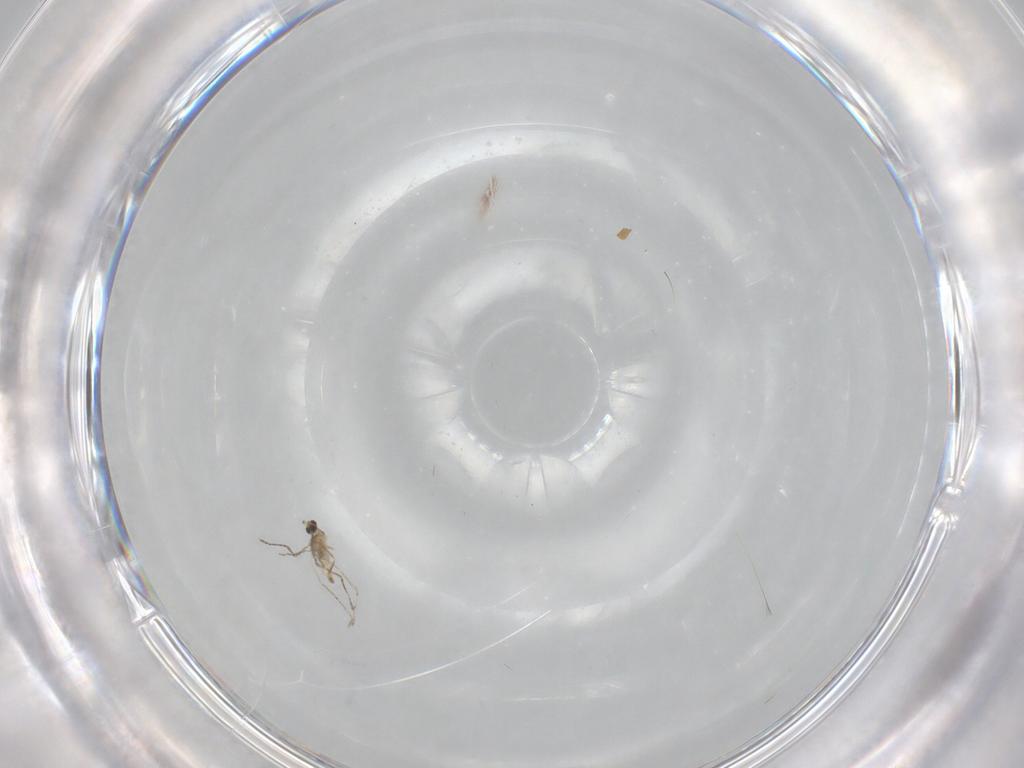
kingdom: Animalia
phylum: Arthropoda
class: Insecta
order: Diptera
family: Cecidomyiidae
